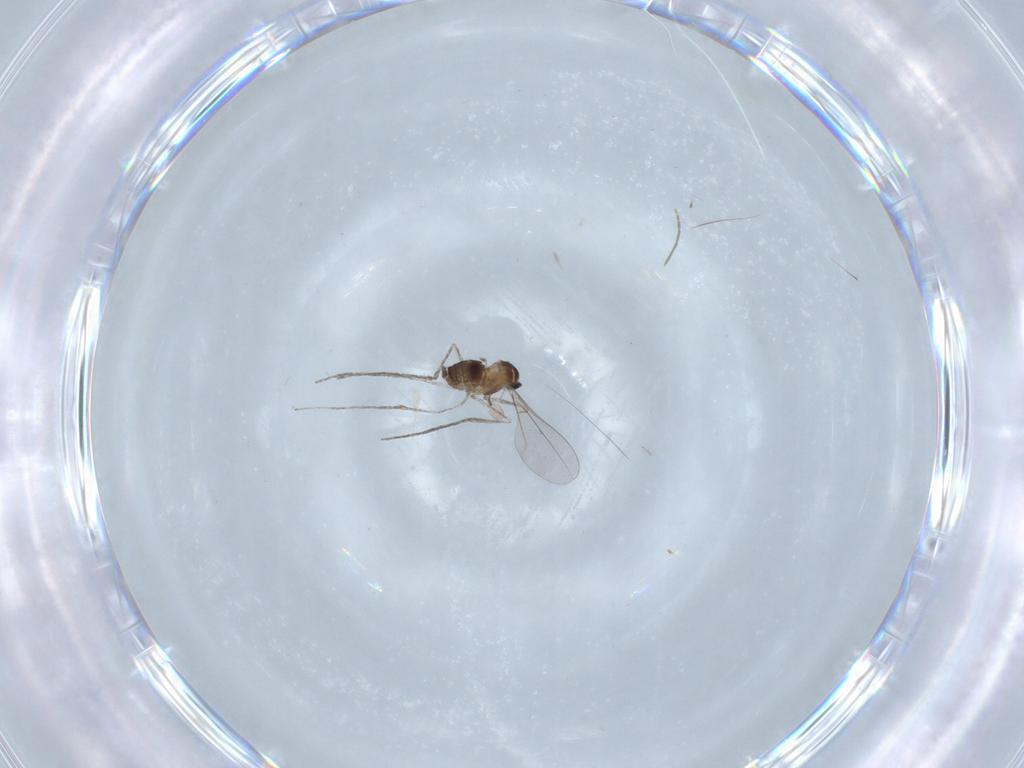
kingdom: Animalia
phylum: Arthropoda
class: Insecta
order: Diptera
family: Cecidomyiidae
